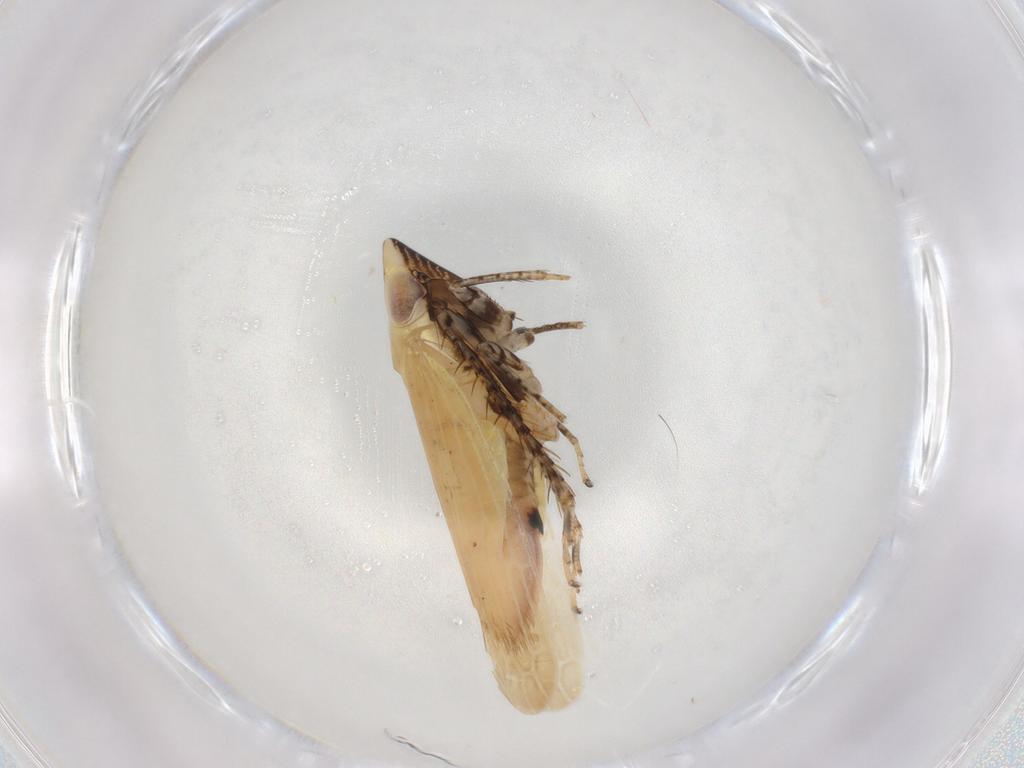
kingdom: Animalia
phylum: Arthropoda
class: Insecta
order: Hemiptera
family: Cicadellidae
